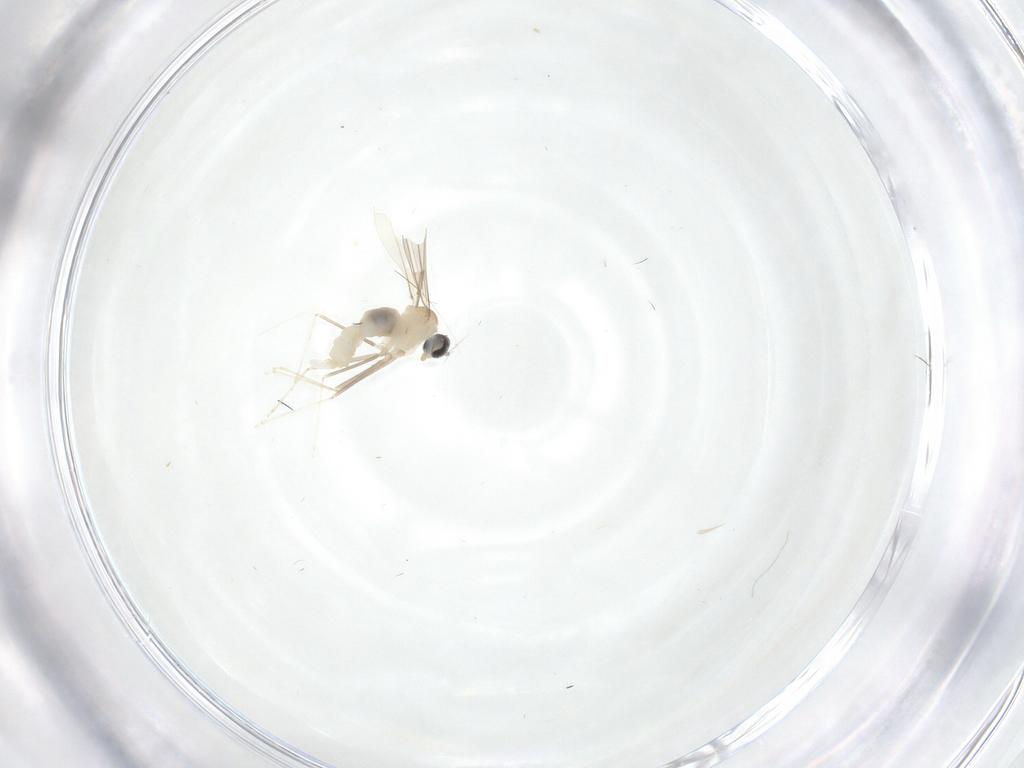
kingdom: Animalia
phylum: Arthropoda
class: Insecta
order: Diptera
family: Cecidomyiidae
